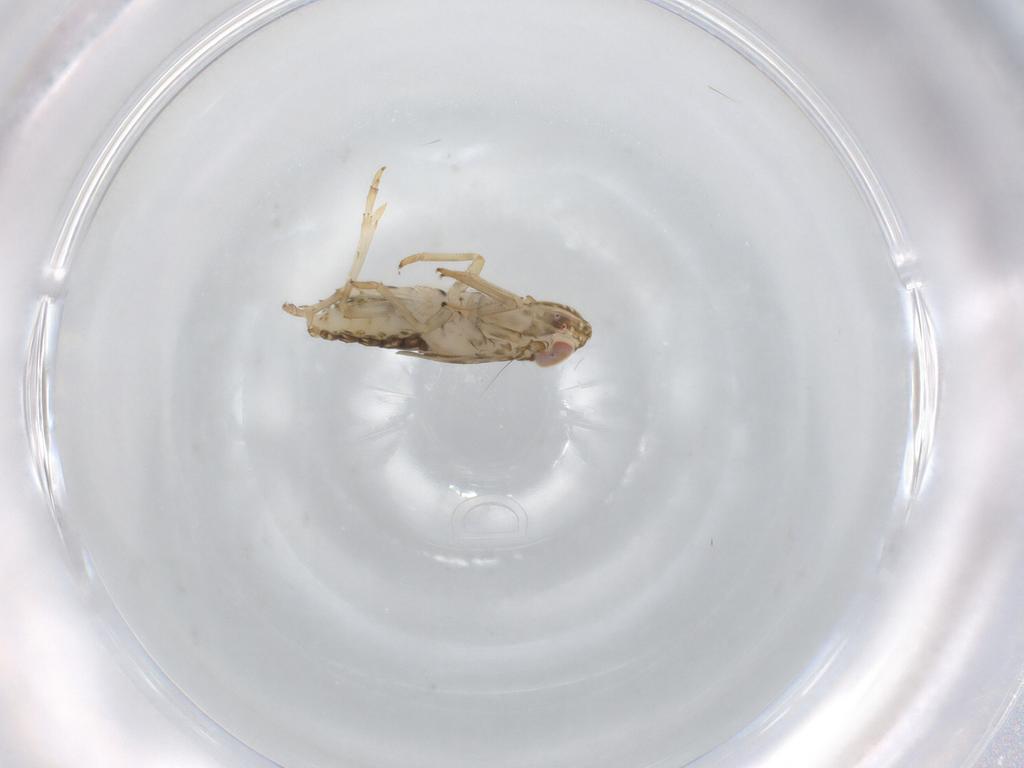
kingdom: Animalia
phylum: Arthropoda
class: Insecta
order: Hemiptera
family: Delphacidae
